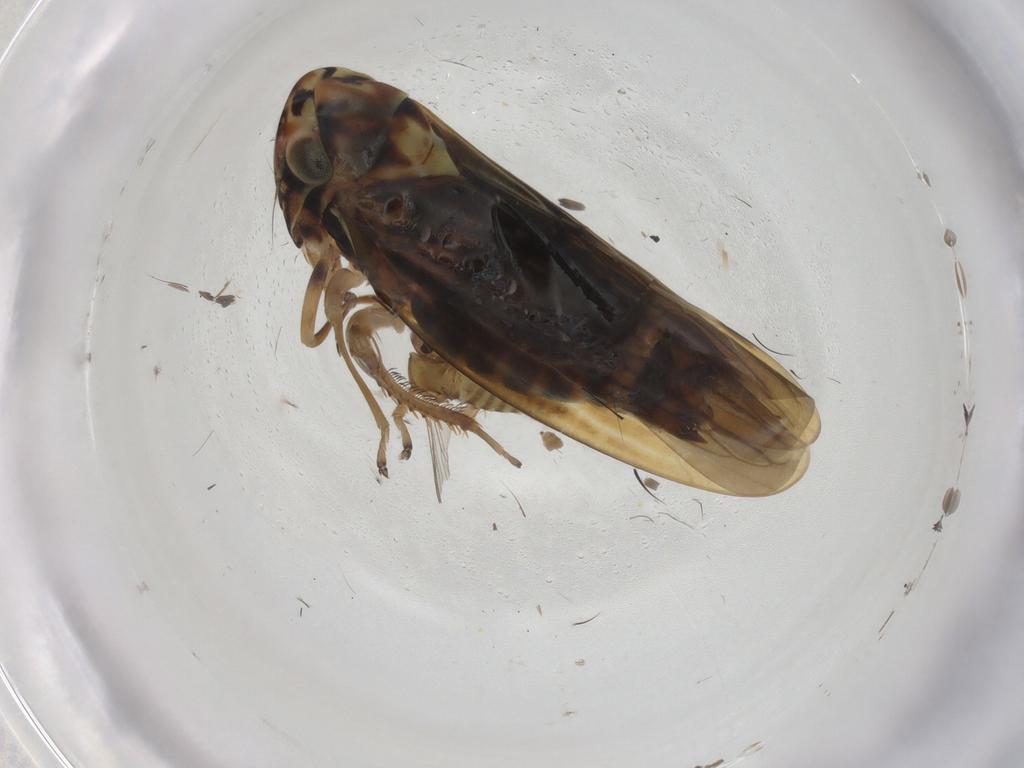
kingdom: Animalia
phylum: Arthropoda
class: Insecta
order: Hemiptera
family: Cicadellidae
